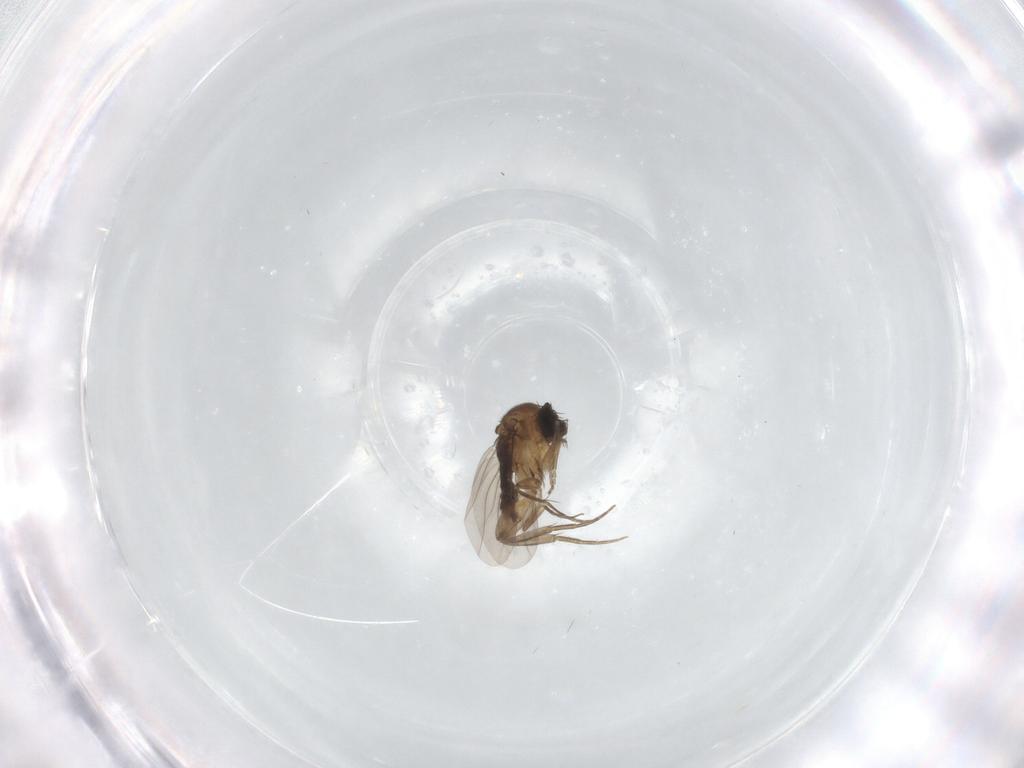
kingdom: Animalia
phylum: Arthropoda
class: Insecta
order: Diptera
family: Phoridae
